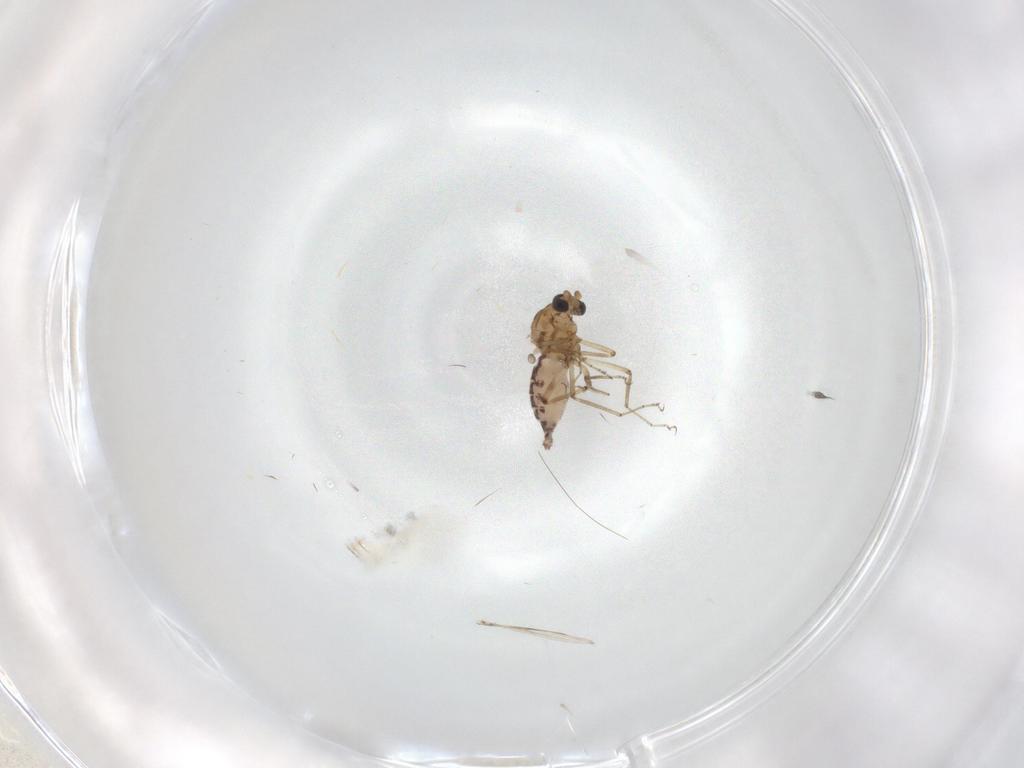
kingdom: Animalia
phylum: Arthropoda
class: Insecta
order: Diptera
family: Ceratopogonidae
